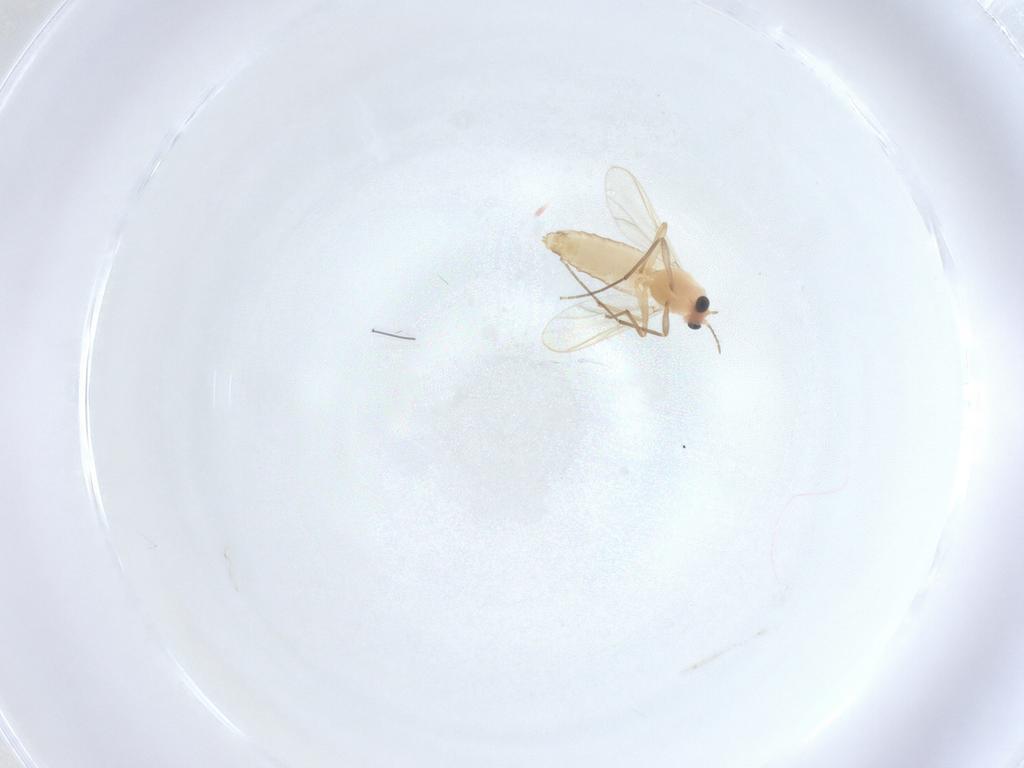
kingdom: Animalia
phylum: Arthropoda
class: Insecta
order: Diptera
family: Chironomidae
